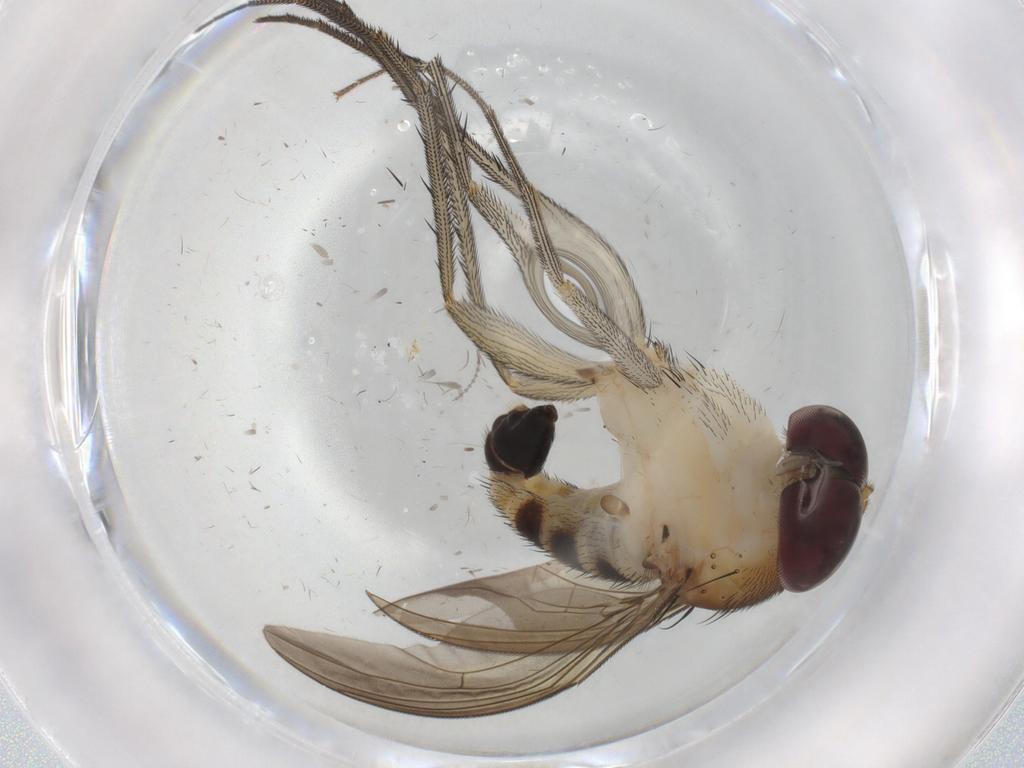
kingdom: Animalia
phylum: Arthropoda
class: Insecta
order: Diptera
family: Dolichopodidae
